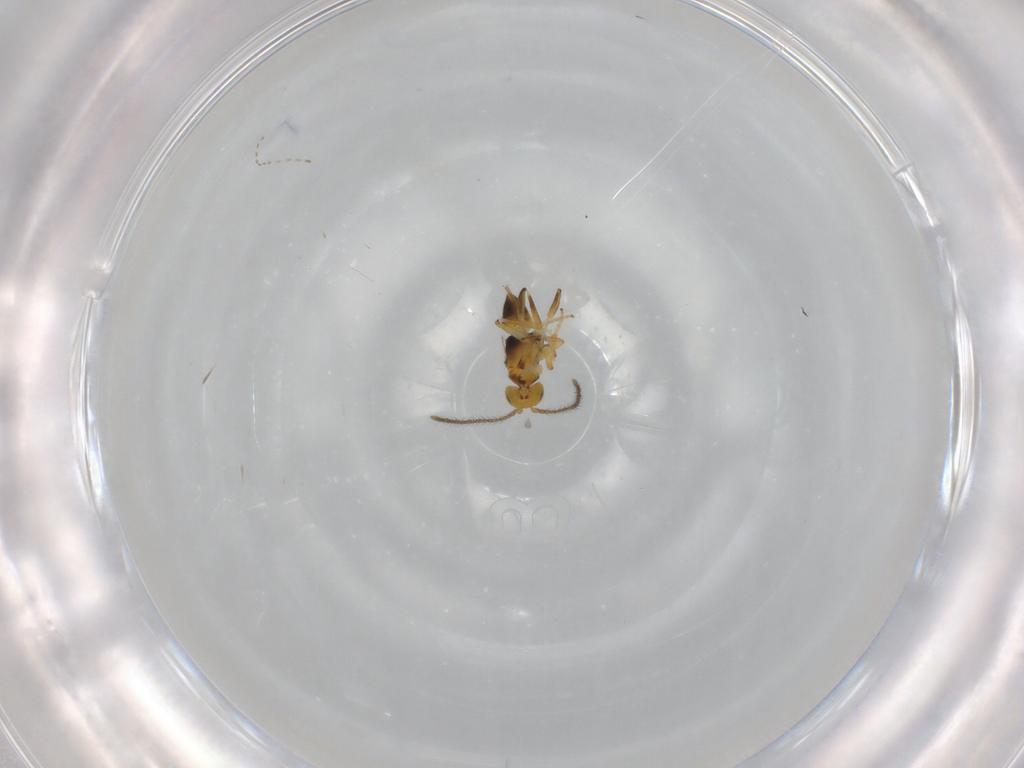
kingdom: Animalia
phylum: Arthropoda
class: Insecta
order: Hymenoptera
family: Encyrtidae
